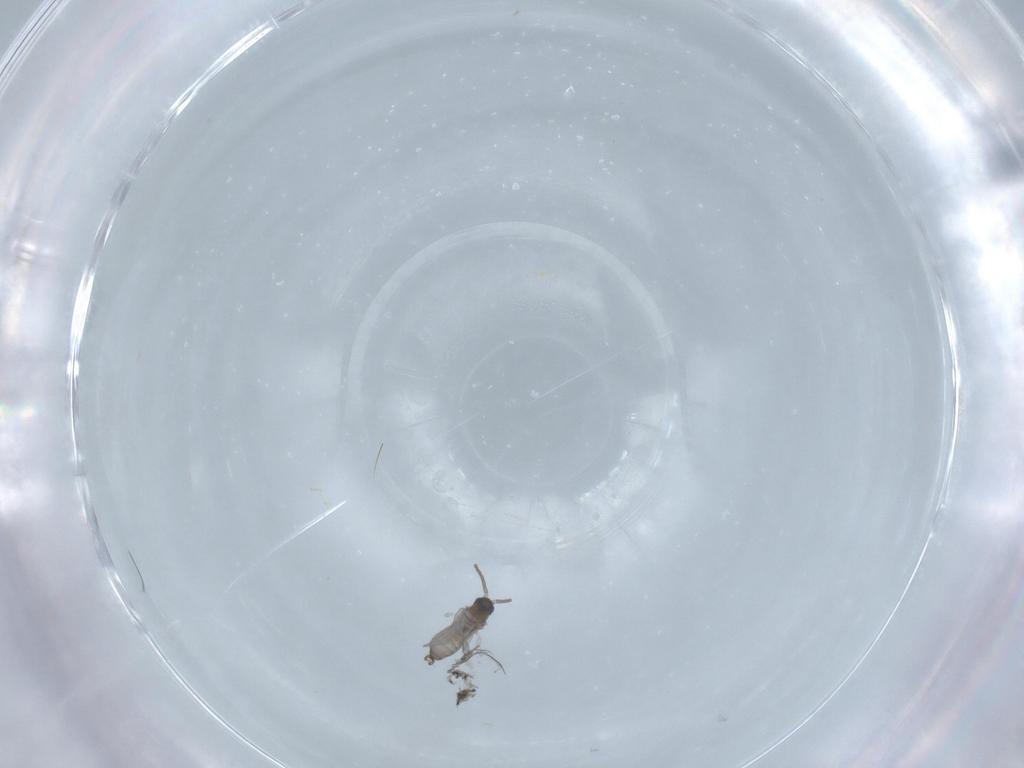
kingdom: Animalia
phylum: Arthropoda
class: Insecta
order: Diptera
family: Cecidomyiidae
